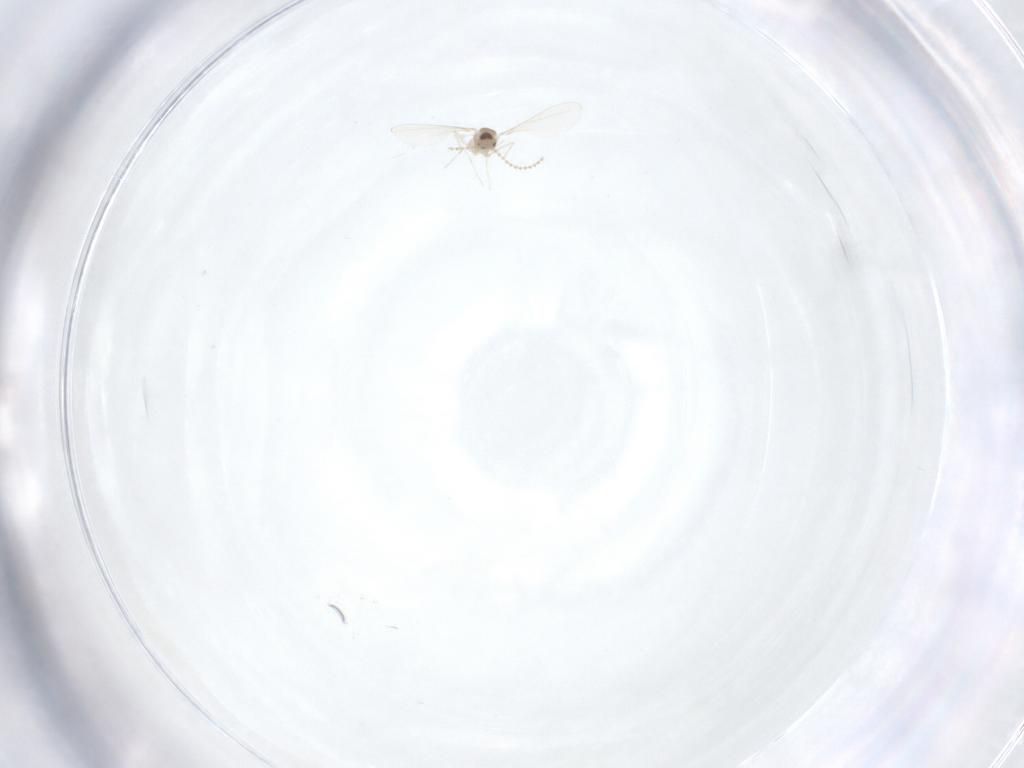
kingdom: Animalia
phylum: Arthropoda
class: Insecta
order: Diptera
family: Cecidomyiidae
